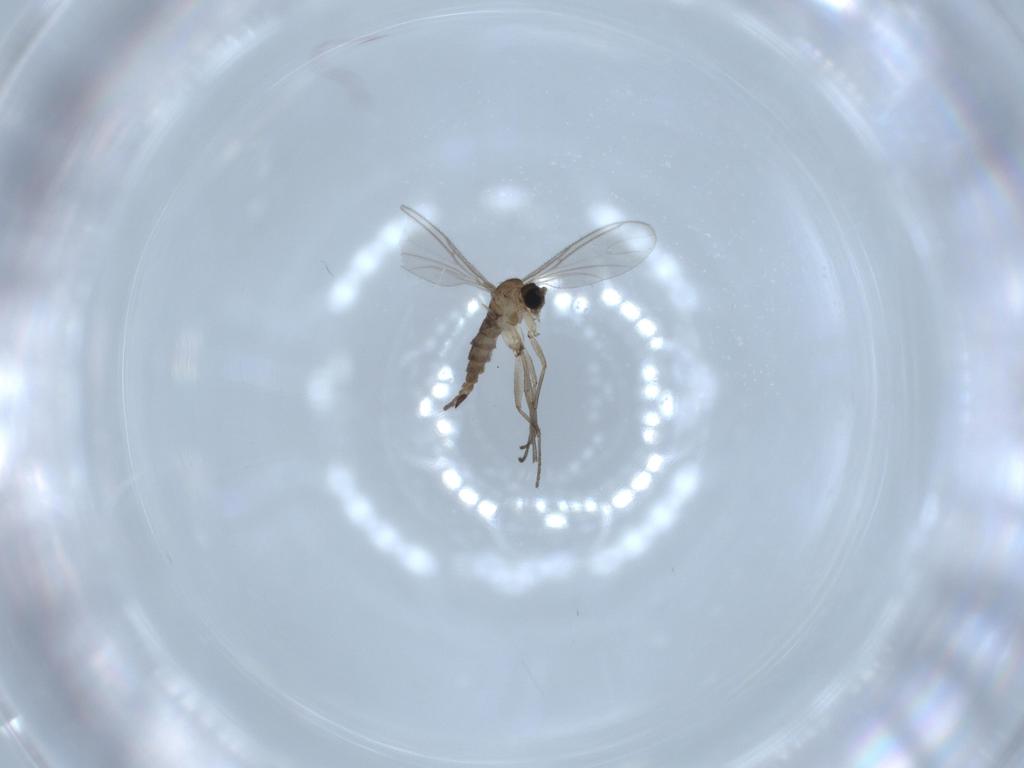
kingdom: Animalia
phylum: Arthropoda
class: Insecta
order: Diptera
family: Sciaridae
